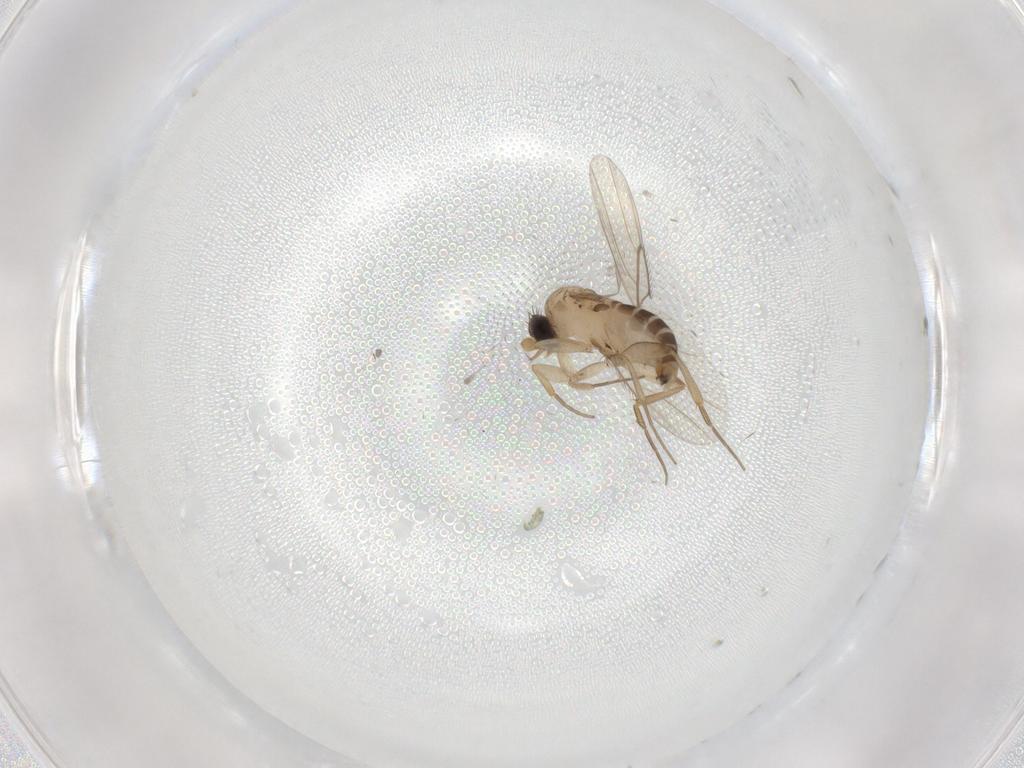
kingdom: Animalia
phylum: Arthropoda
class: Insecta
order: Diptera
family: Phoridae
